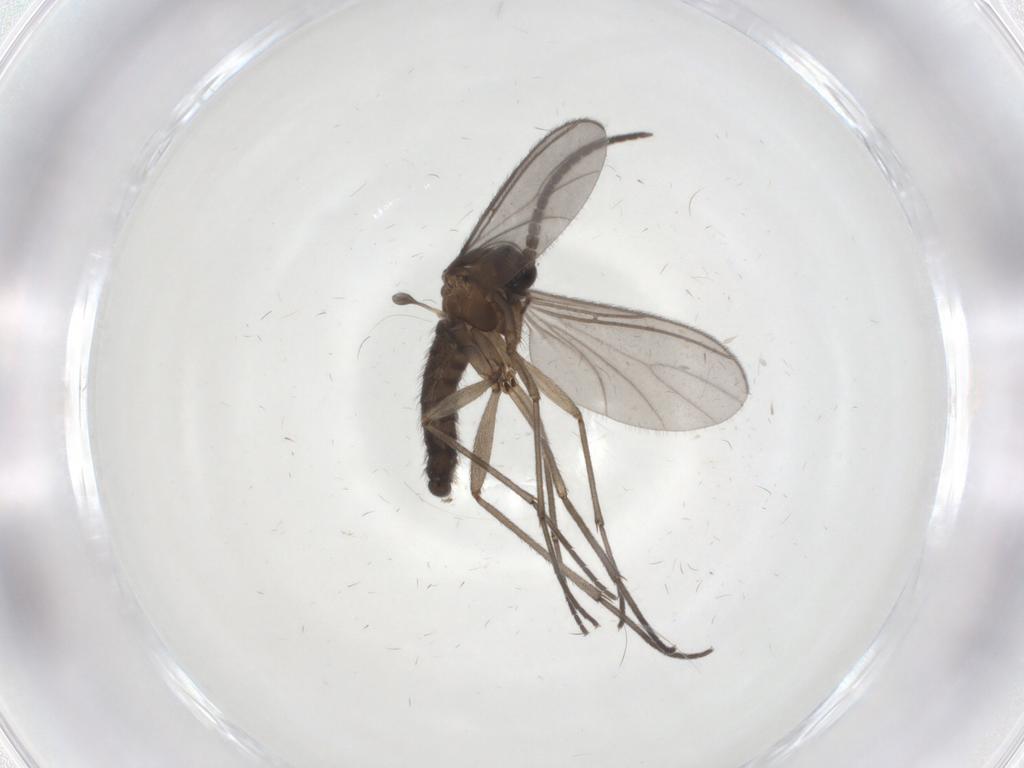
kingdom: Animalia
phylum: Arthropoda
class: Insecta
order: Diptera
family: Sciaridae
